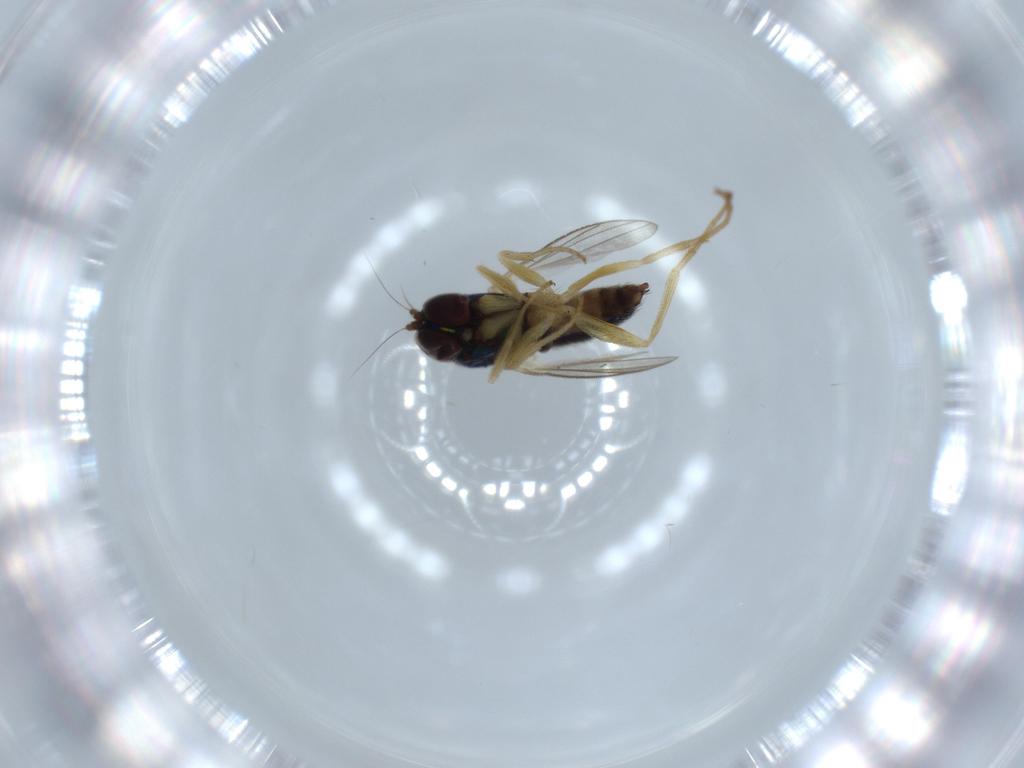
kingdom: Animalia
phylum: Arthropoda
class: Insecta
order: Diptera
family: Dolichopodidae
